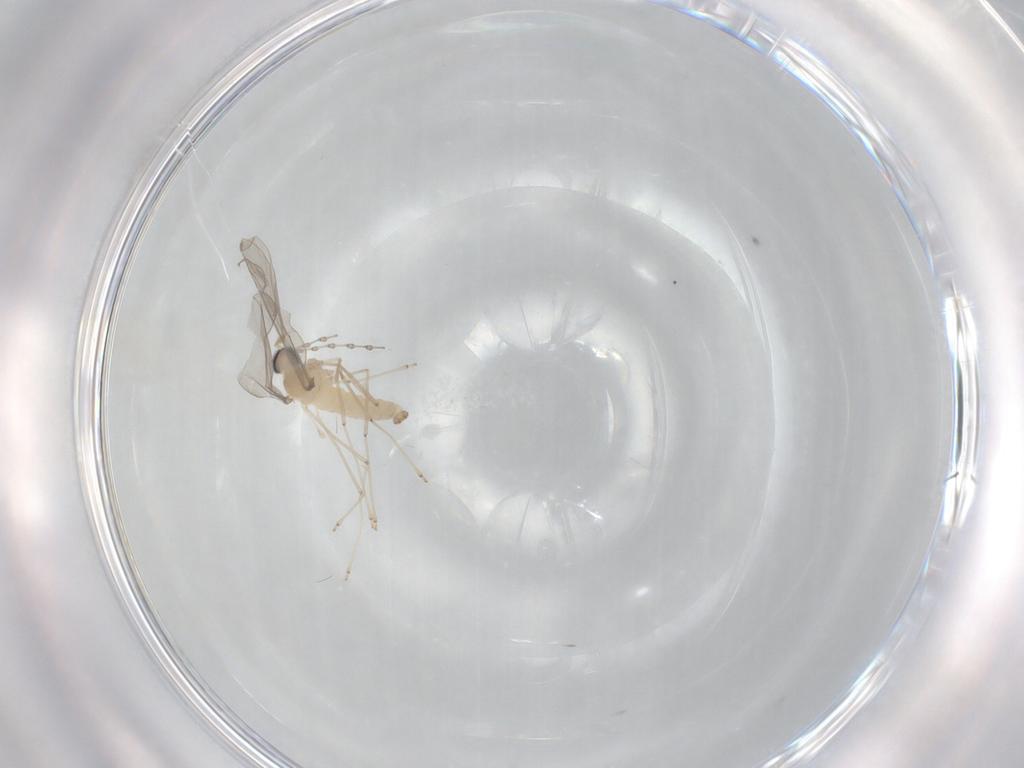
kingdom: Animalia
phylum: Arthropoda
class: Insecta
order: Diptera
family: Cecidomyiidae
